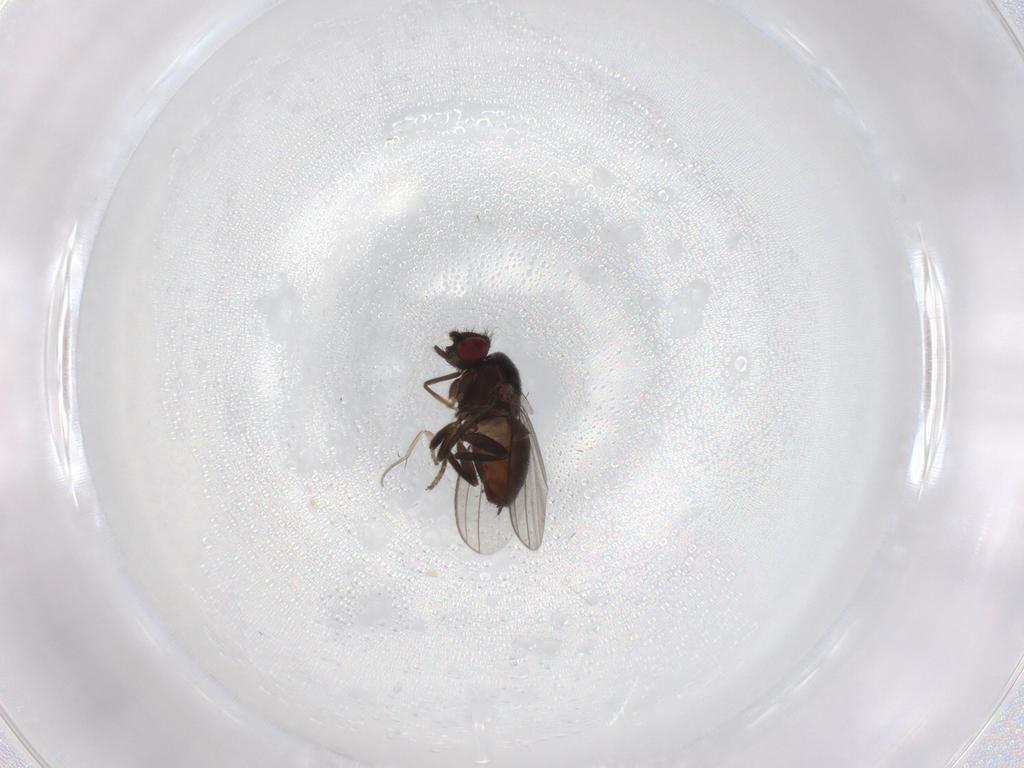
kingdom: Animalia
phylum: Arthropoda
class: Insecta
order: Diptera
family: Milichiidae
